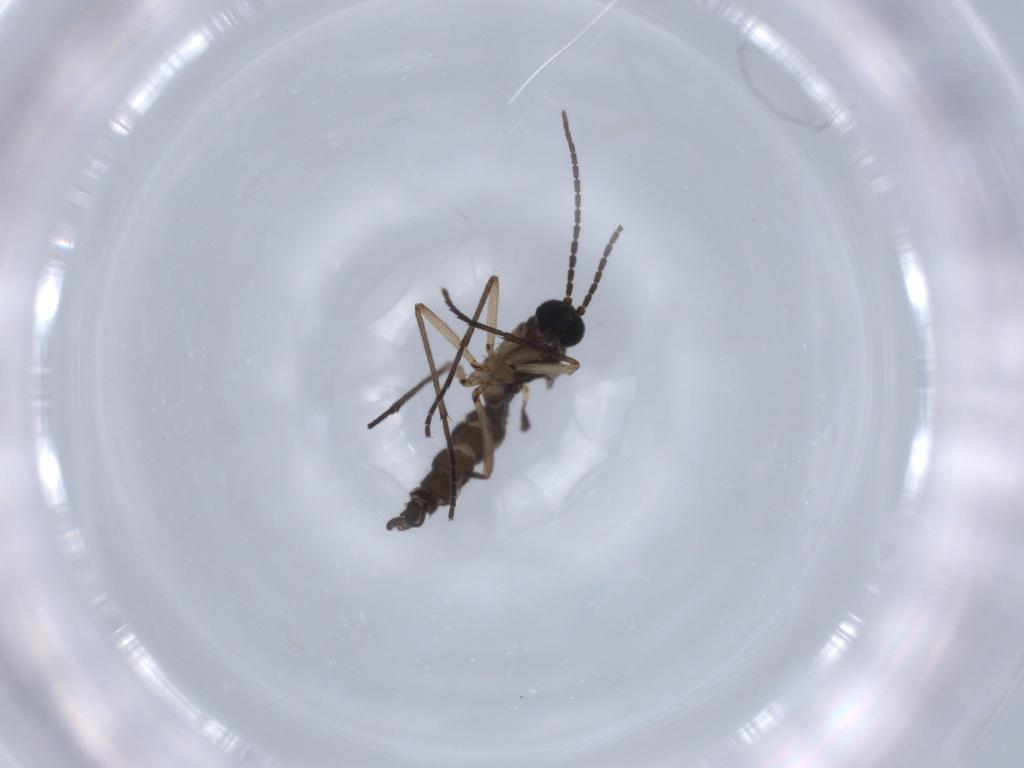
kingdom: Animalia
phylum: Arthropoda
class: Insecta
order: Diptera
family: Sciaridae
